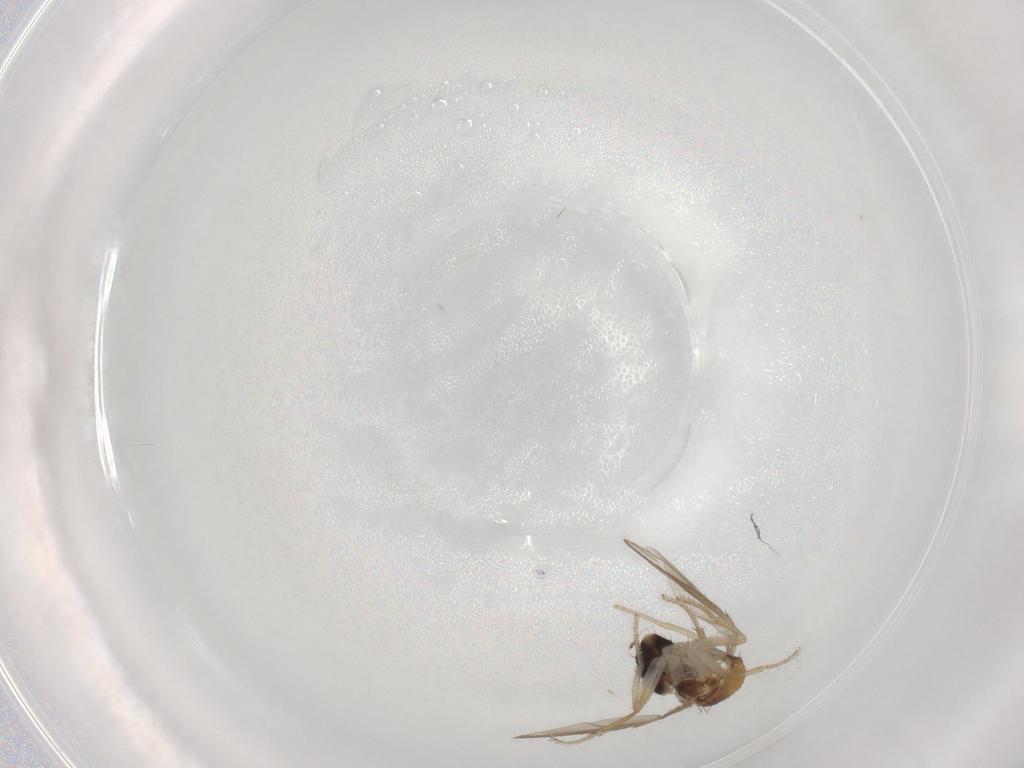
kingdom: Animalia
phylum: Arthropoda
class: Insecta
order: Diptera
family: Drosophilidae
